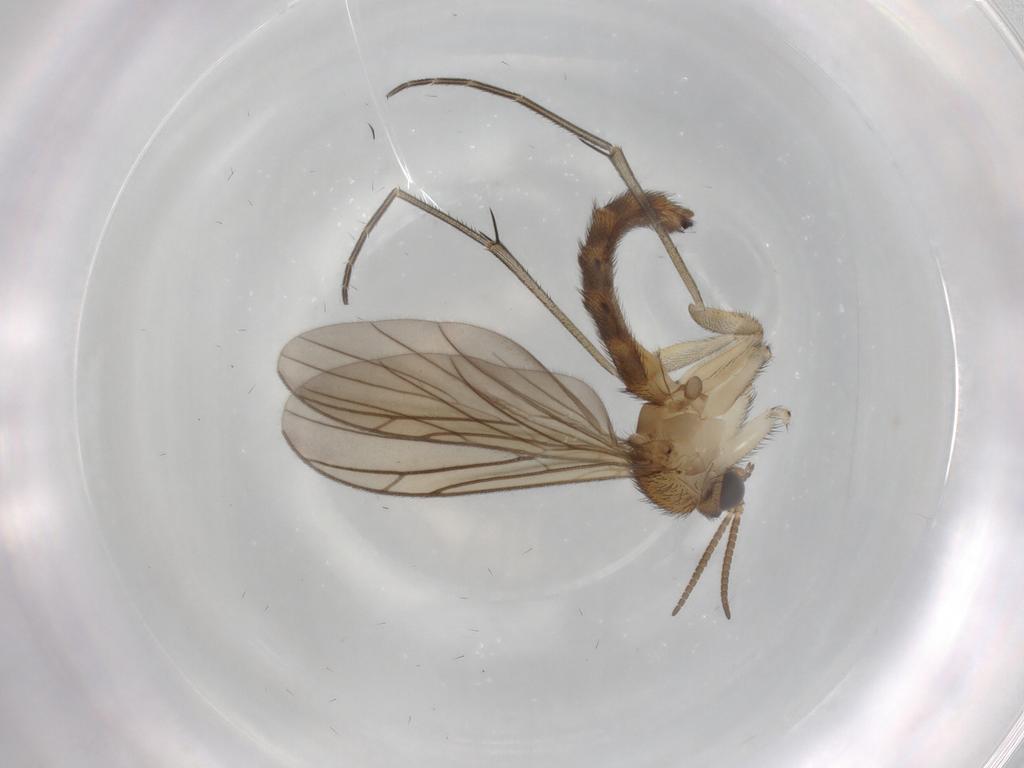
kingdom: Animalia
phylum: Arthropoda
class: Insecta
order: Diptera
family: Keroplatidae
